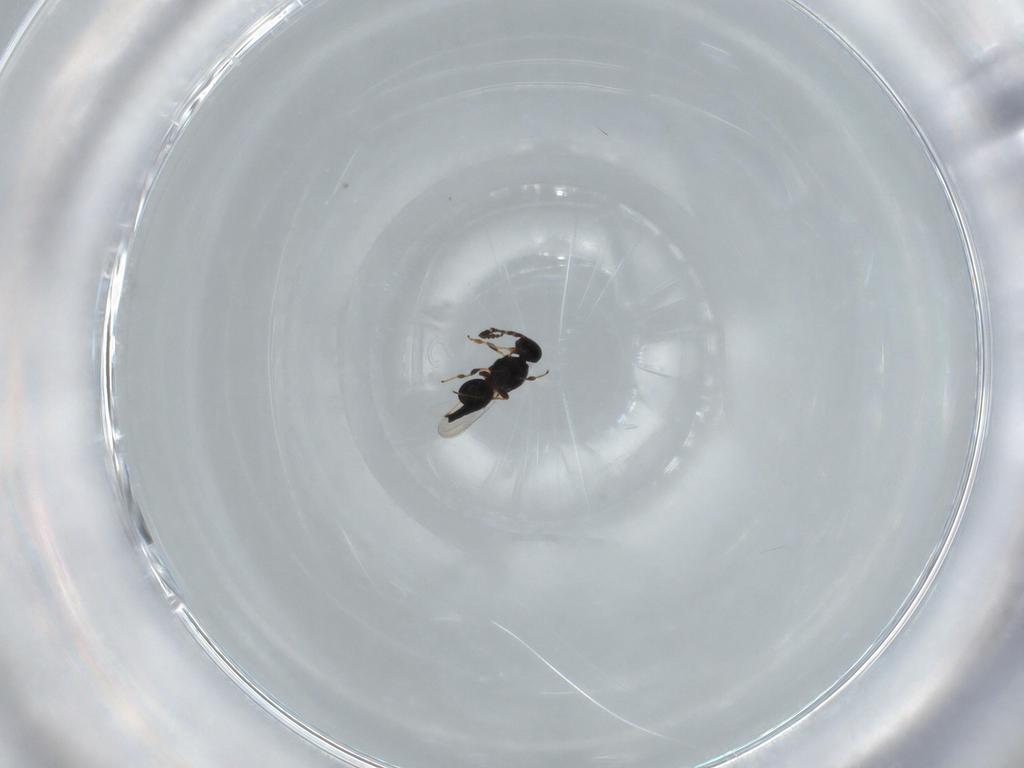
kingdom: Animalia
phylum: Arthropoda
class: Insecta
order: Hymenoptera
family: Platygastridae
